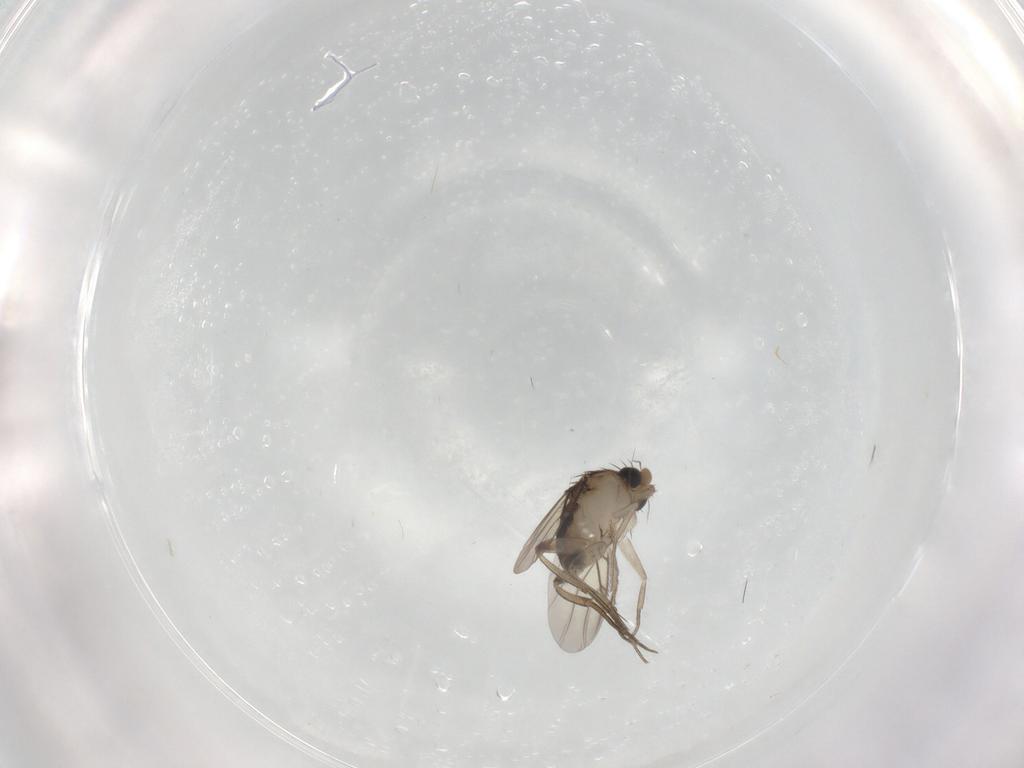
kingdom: Animalia
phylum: Arthropoda
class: Insecta
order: Diptera
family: Phoridae
